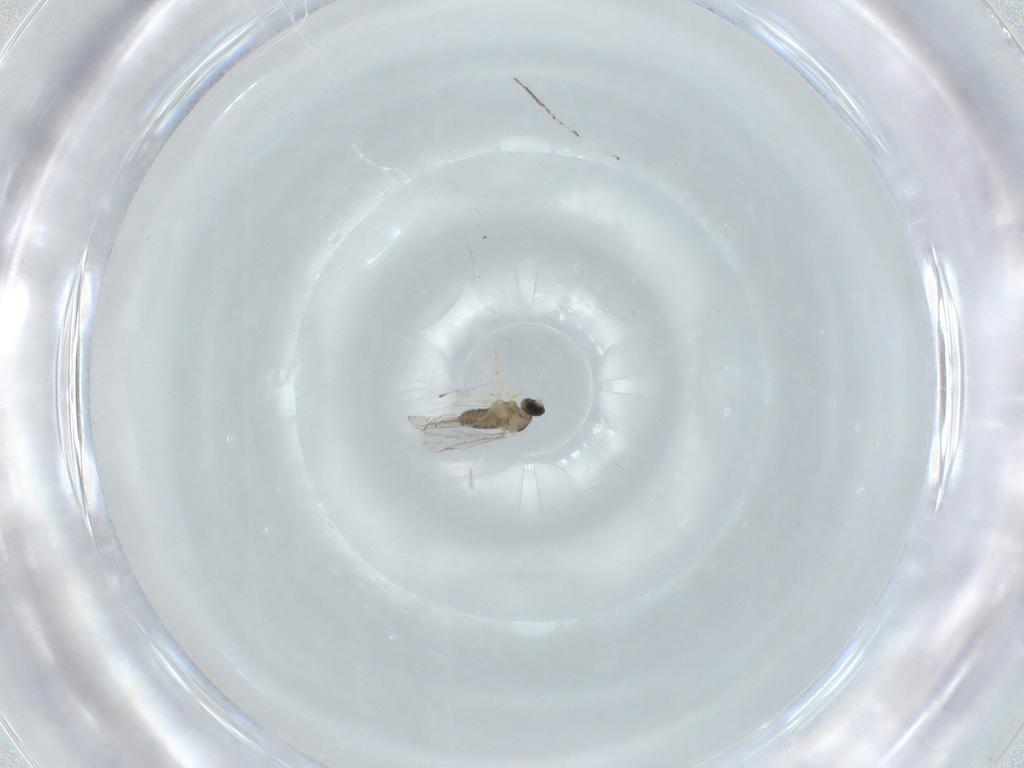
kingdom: Animalia
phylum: Arthropoda
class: Insecta
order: Diptera
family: Cecidomyiidae
